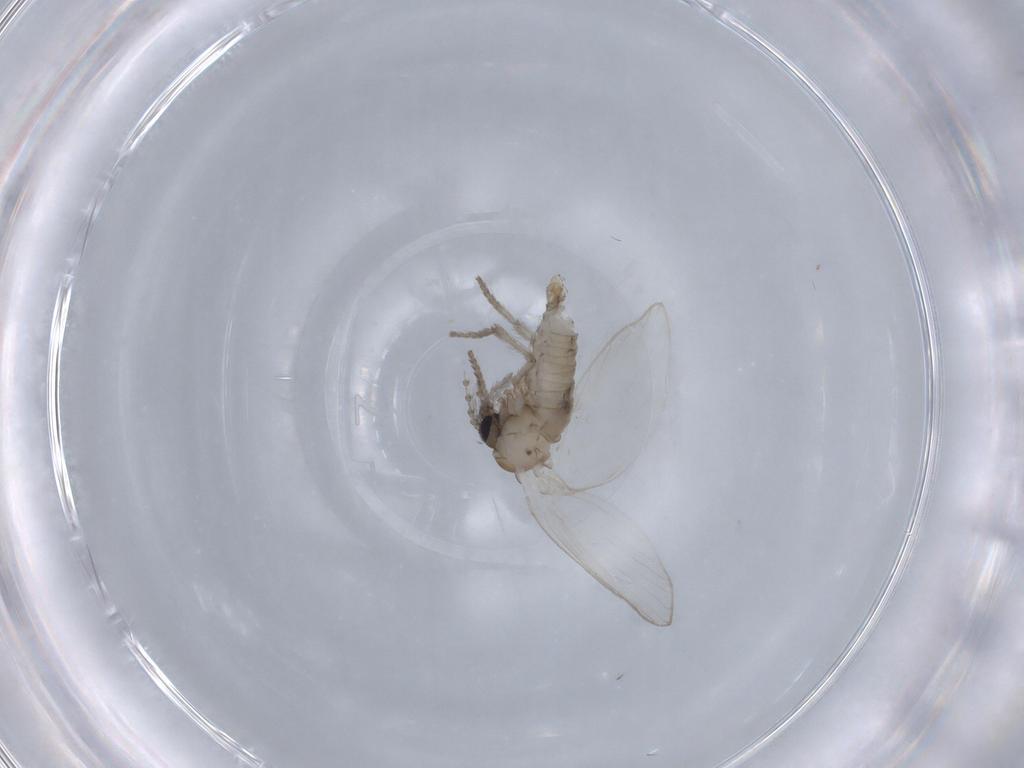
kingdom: Animalia
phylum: Arthropoda
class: Insecta
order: Diptera
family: Psychodidae
